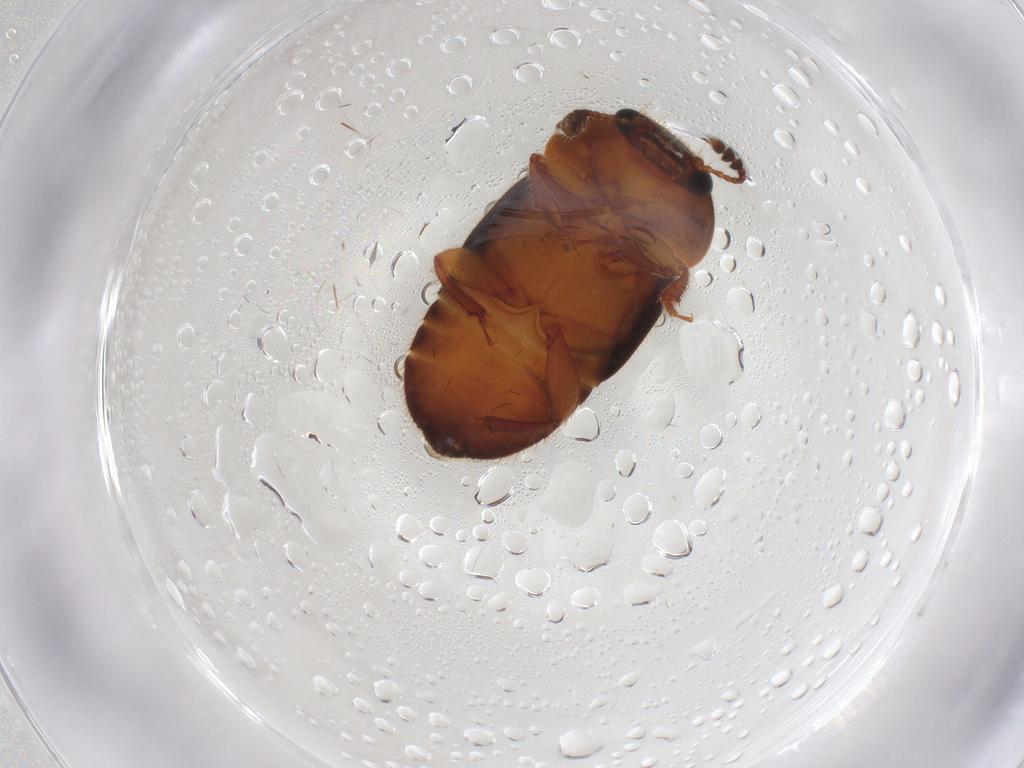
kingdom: Animalia
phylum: Arthropoda
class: Insecta
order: Coleoptera
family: Nitidulidae
